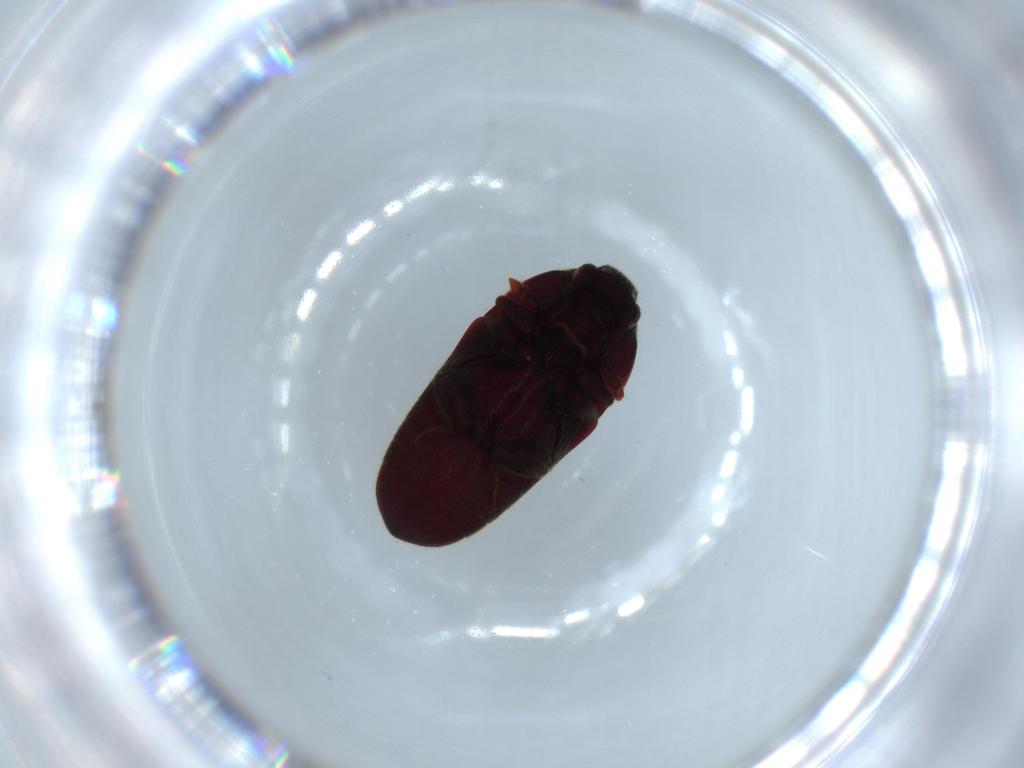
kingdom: Animalia
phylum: Arthropoda
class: Insecta
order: Coleoptera
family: Throscidae
